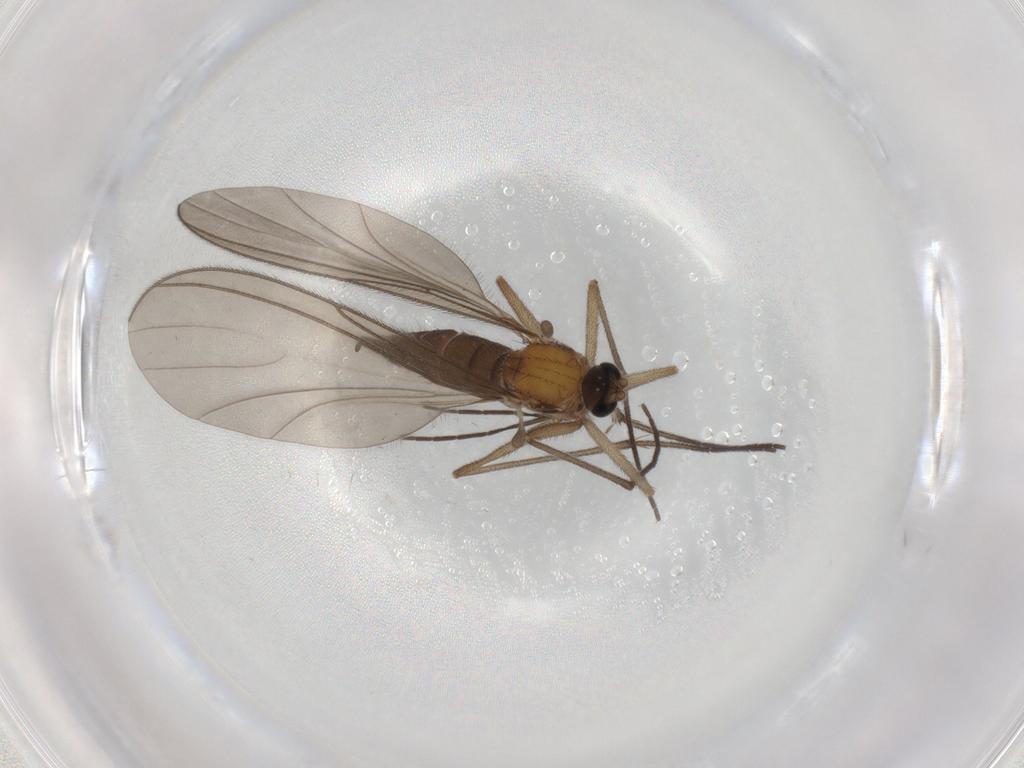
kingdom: Animalia
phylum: Arthropoda
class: Insecta
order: Diptera
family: Sciaridae
